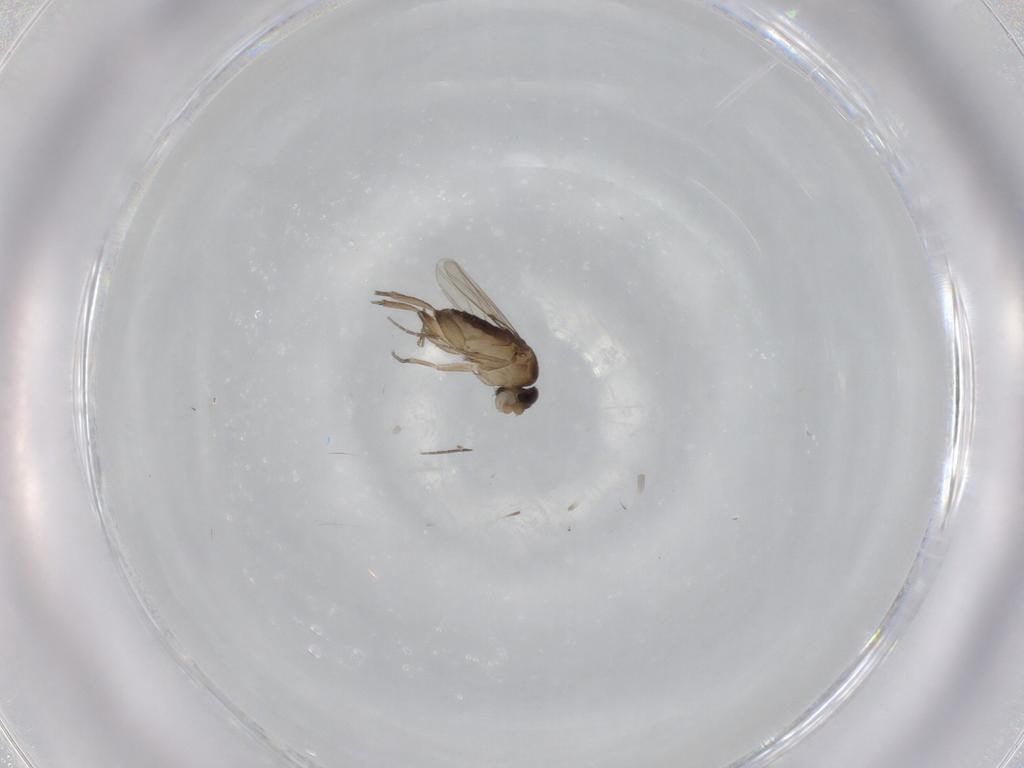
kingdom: Animalia
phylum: Arthropoda
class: Insecta
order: Diptera
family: Phoridae
